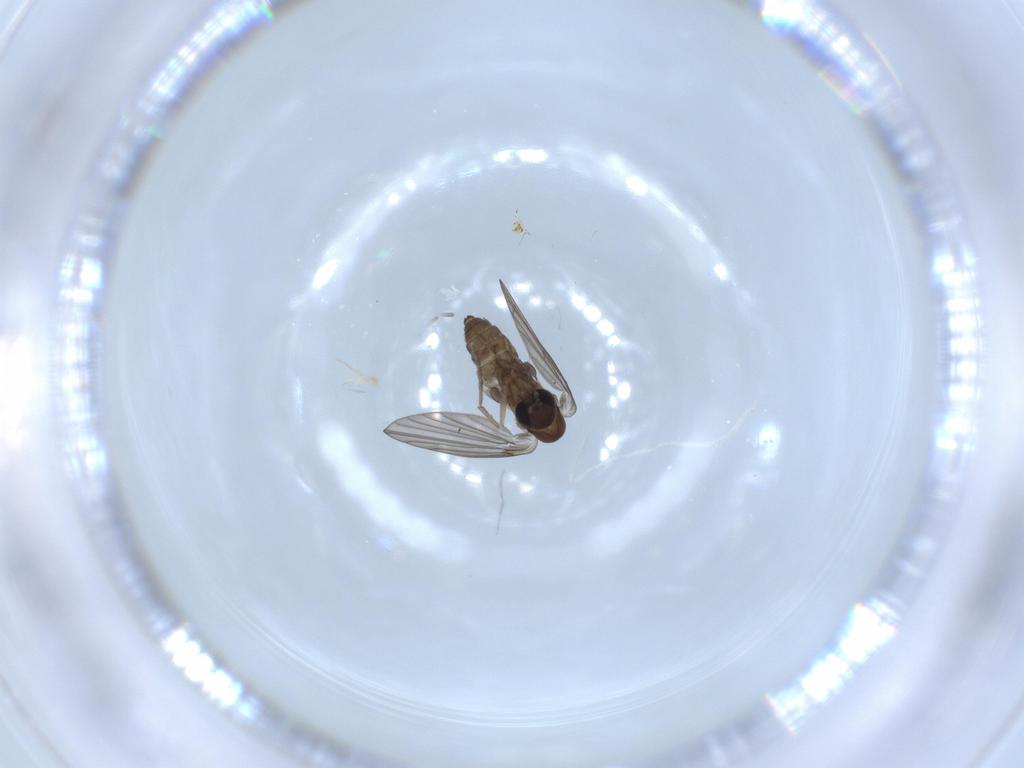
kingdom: Animalia
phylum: Arthropoda
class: Insecta
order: Diptera
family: Psychodidae
